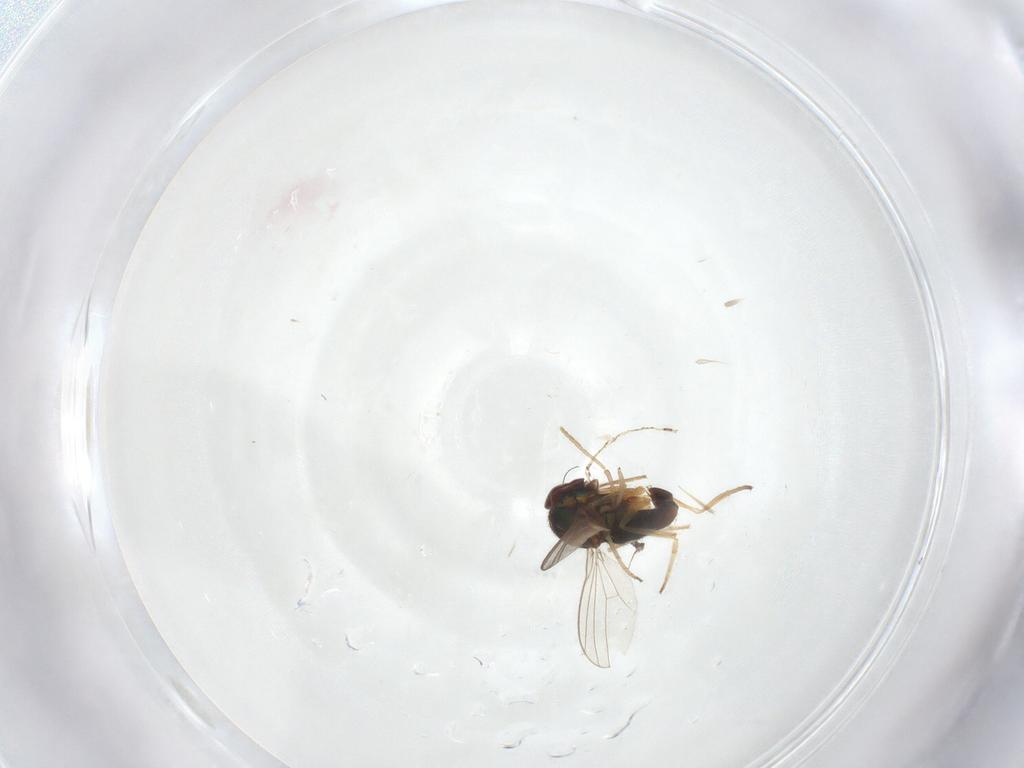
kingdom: Animalia
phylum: Arthropoda
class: Insecta
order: Diptera
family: Dolichopodidae
